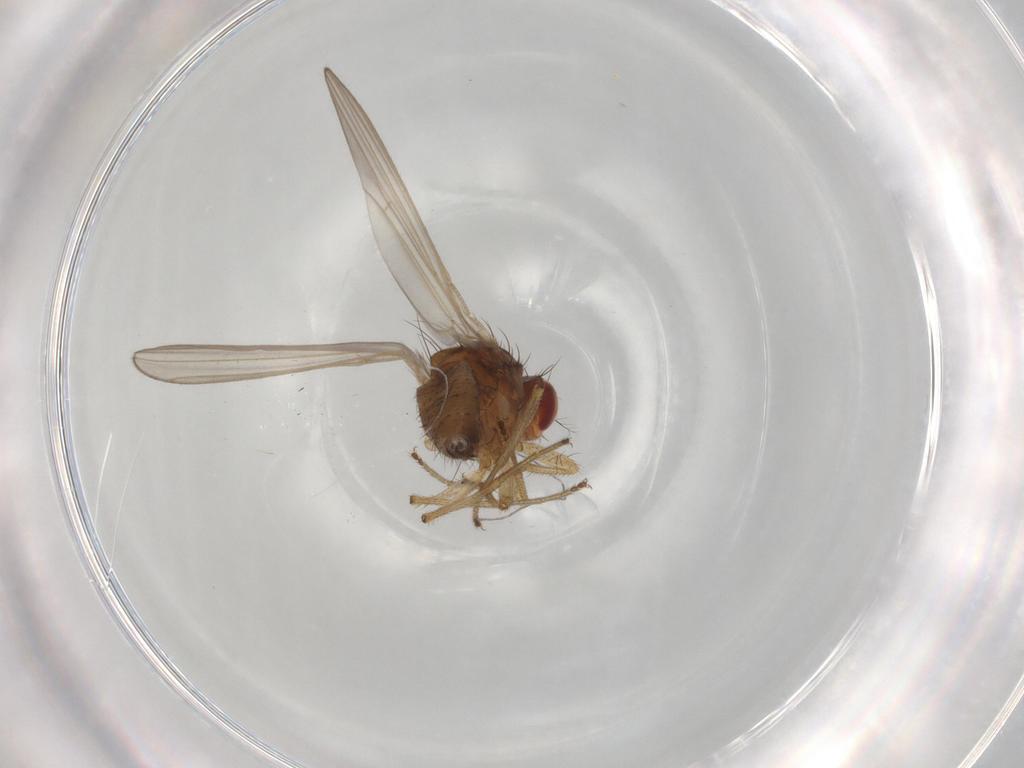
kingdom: Animalia
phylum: Arthropoda
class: Insecta
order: Diptera
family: Drosophilidae
